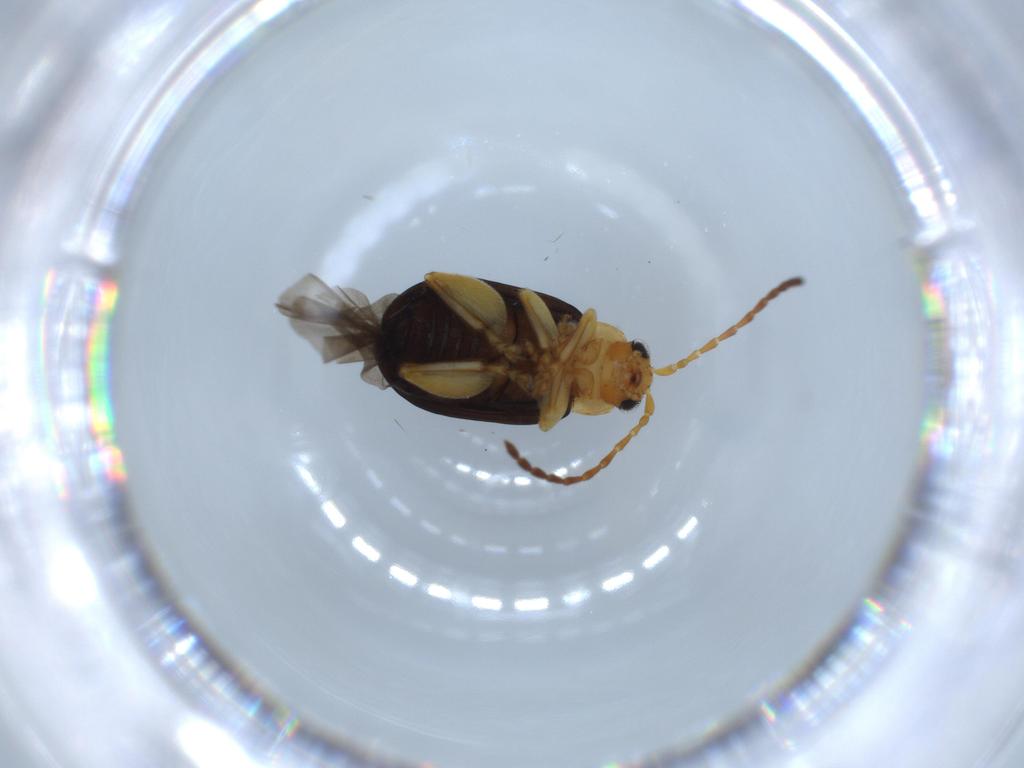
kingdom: Animalia
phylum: Arthropoda
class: Insecta
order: Coleoptera
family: Chrysomelidae
